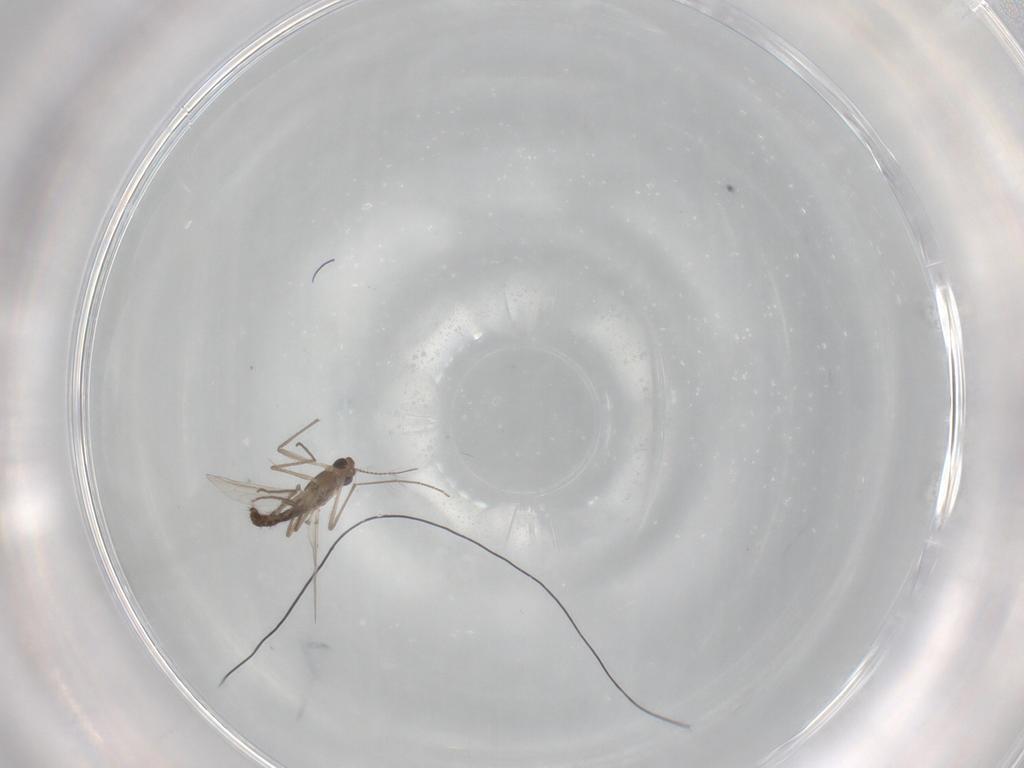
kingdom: Animalia
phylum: Arthropoda
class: Insecta
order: Diptera
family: Chironomidae
